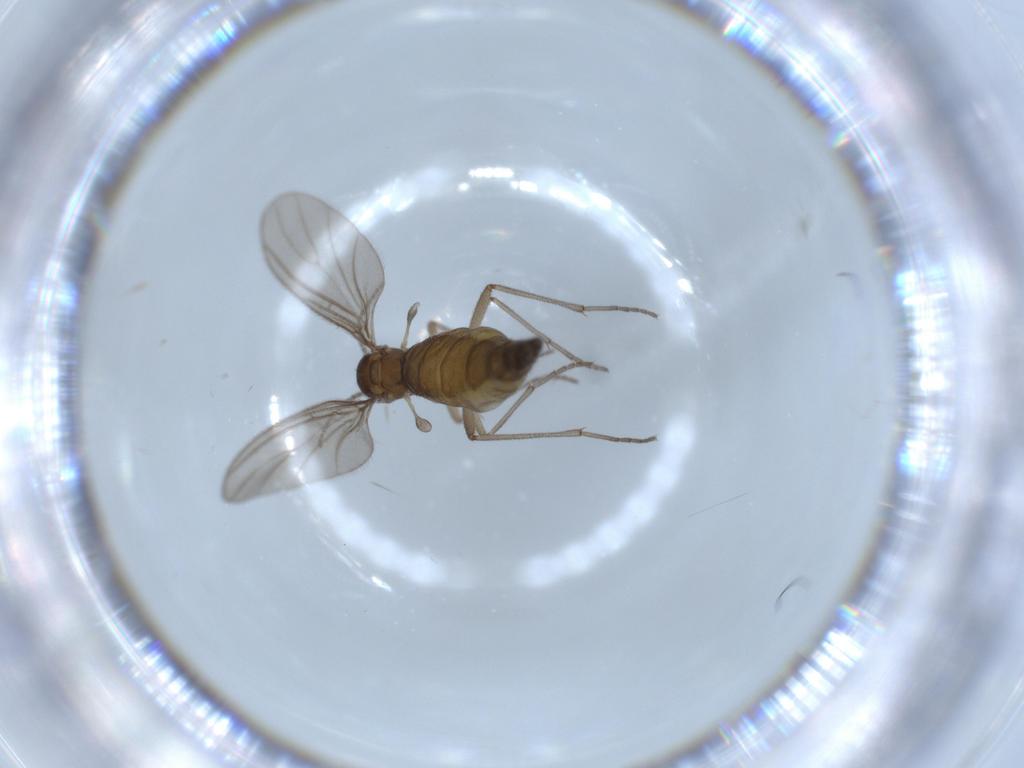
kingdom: Animalia
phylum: Arthropoda
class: Insecta
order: Diptera
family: Sciaridae
